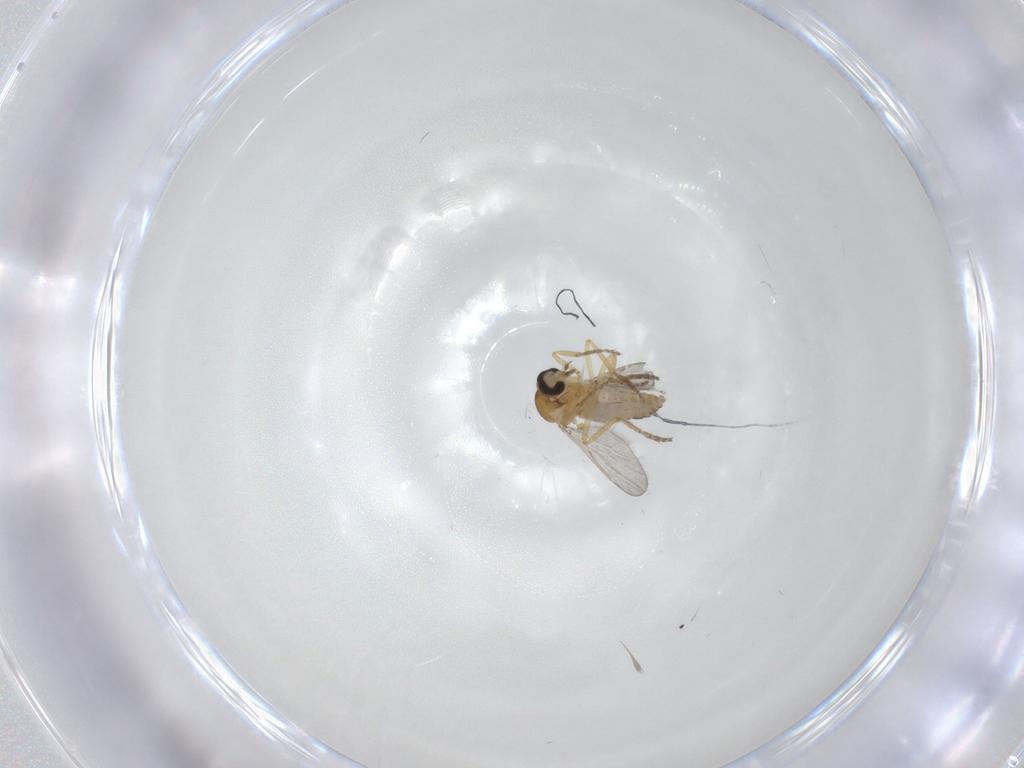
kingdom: Animalia
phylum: Arthropoda
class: Insecta
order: Diptera
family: Cecidomyiidae
